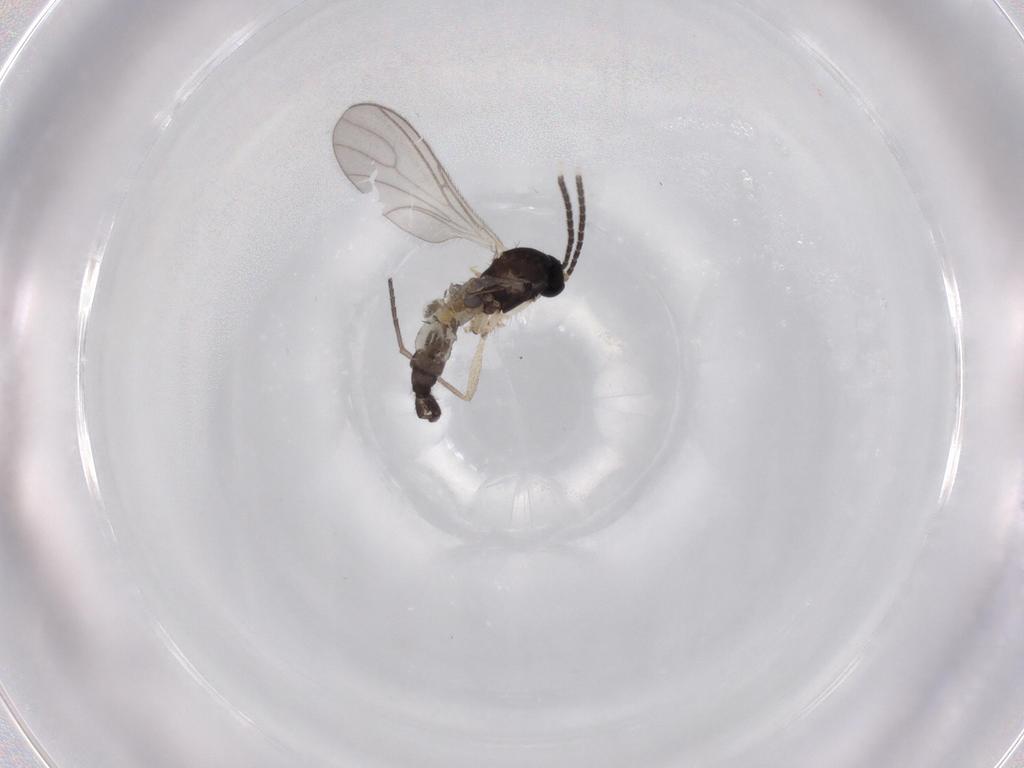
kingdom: Animalia
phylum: Arthropoda
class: Insecta
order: Diptera
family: Sciaridae
